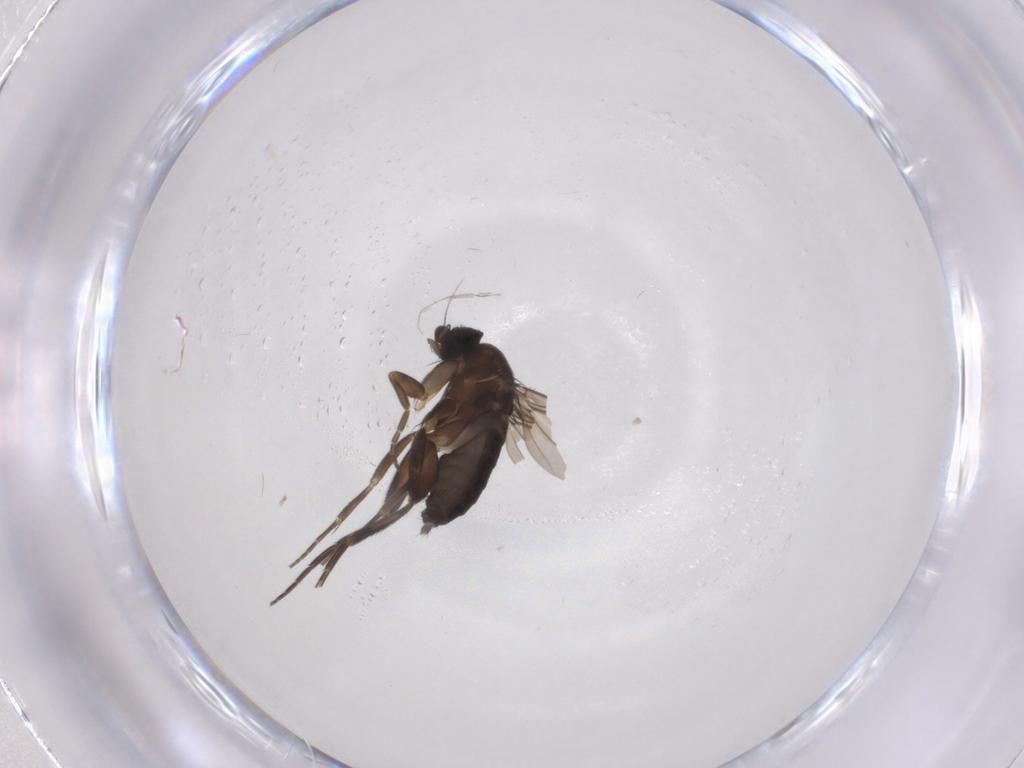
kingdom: Animalia
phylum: Arthropoda
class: Insecta
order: Diptera
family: Phoridae
